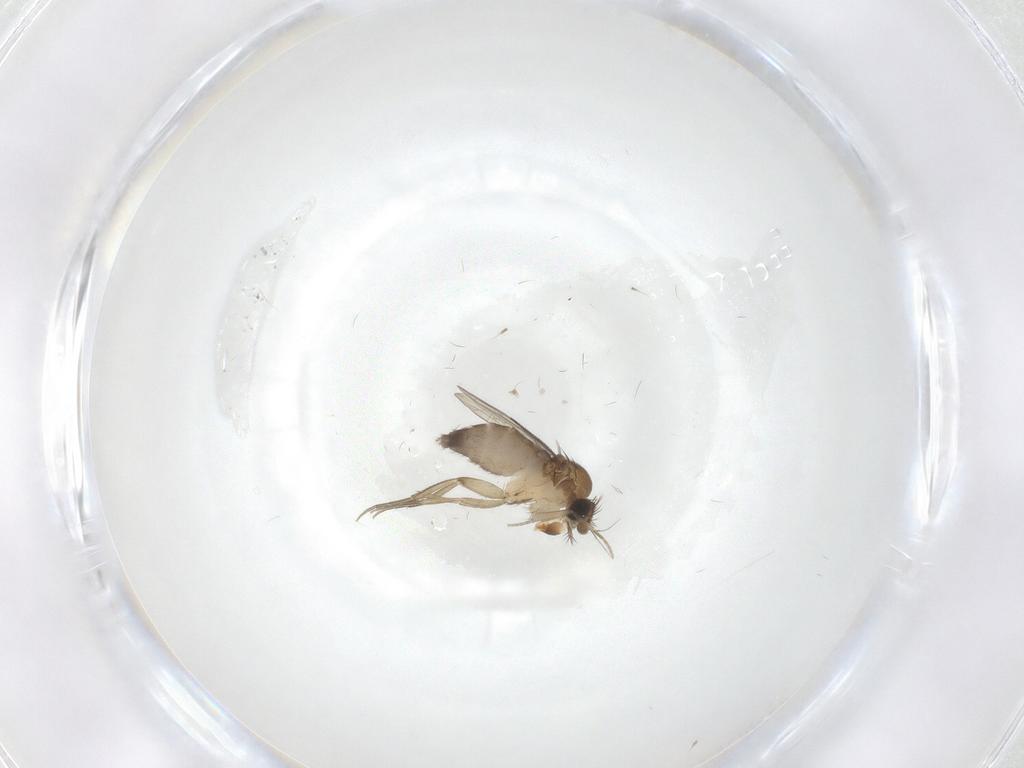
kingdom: Animalia
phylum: Arthropoda
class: Insecta
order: Diptera
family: Phoridae
